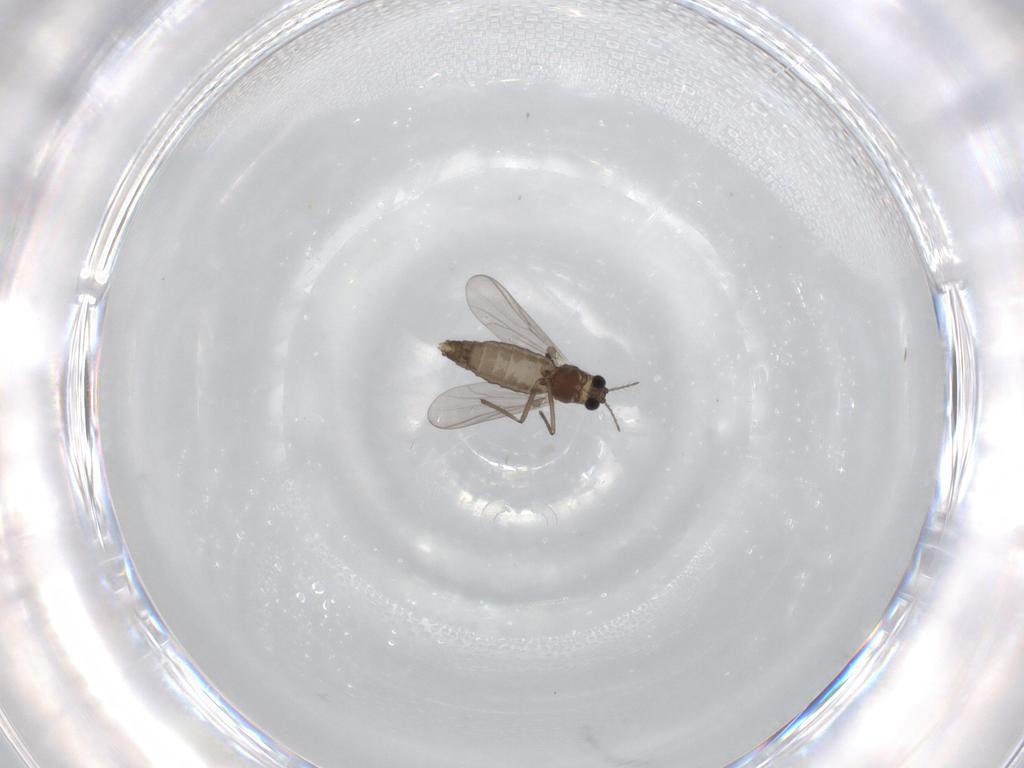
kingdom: Animalia
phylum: Arthropoda
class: Insecta
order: Diptera
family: Chironomidae
